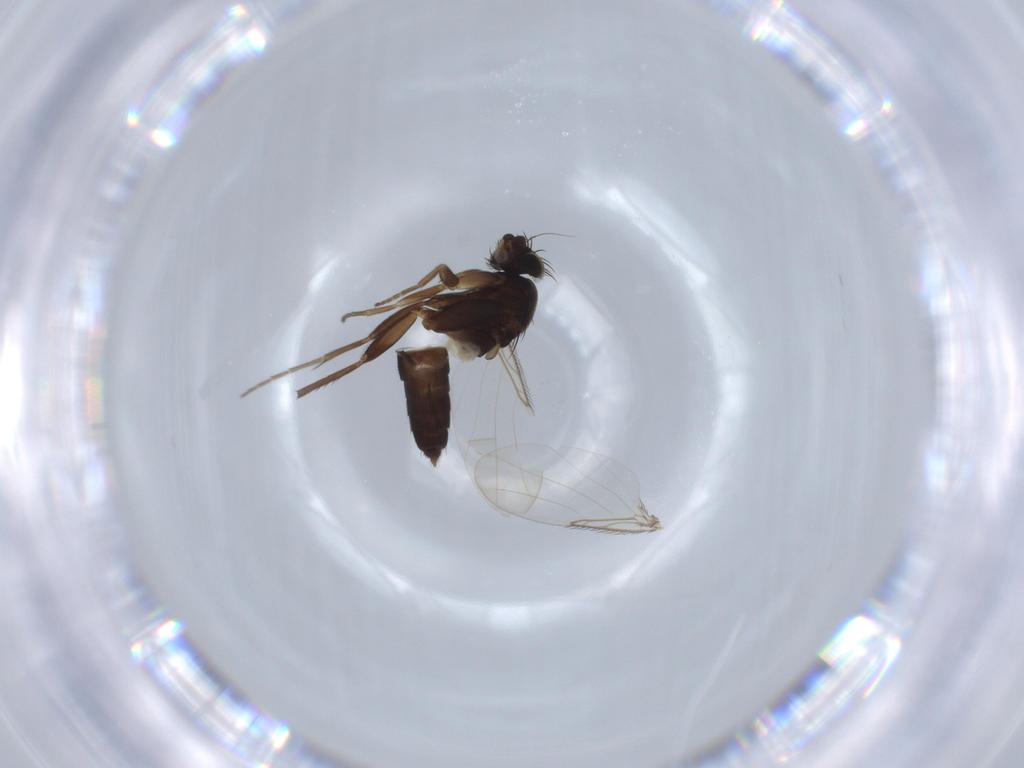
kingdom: Animalia
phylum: Arthropoda
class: Insecta
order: Diptera
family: Phoridae
